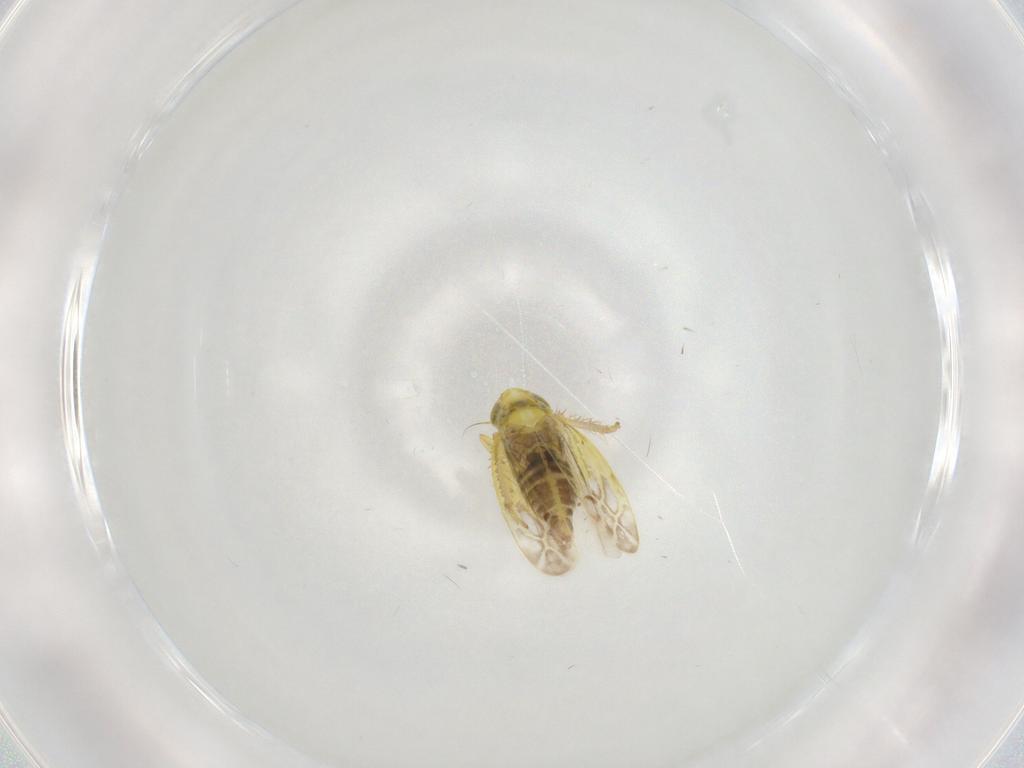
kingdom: Animalia
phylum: Arthropoda
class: Insecta
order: Hemiptera
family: Cicadellidae
